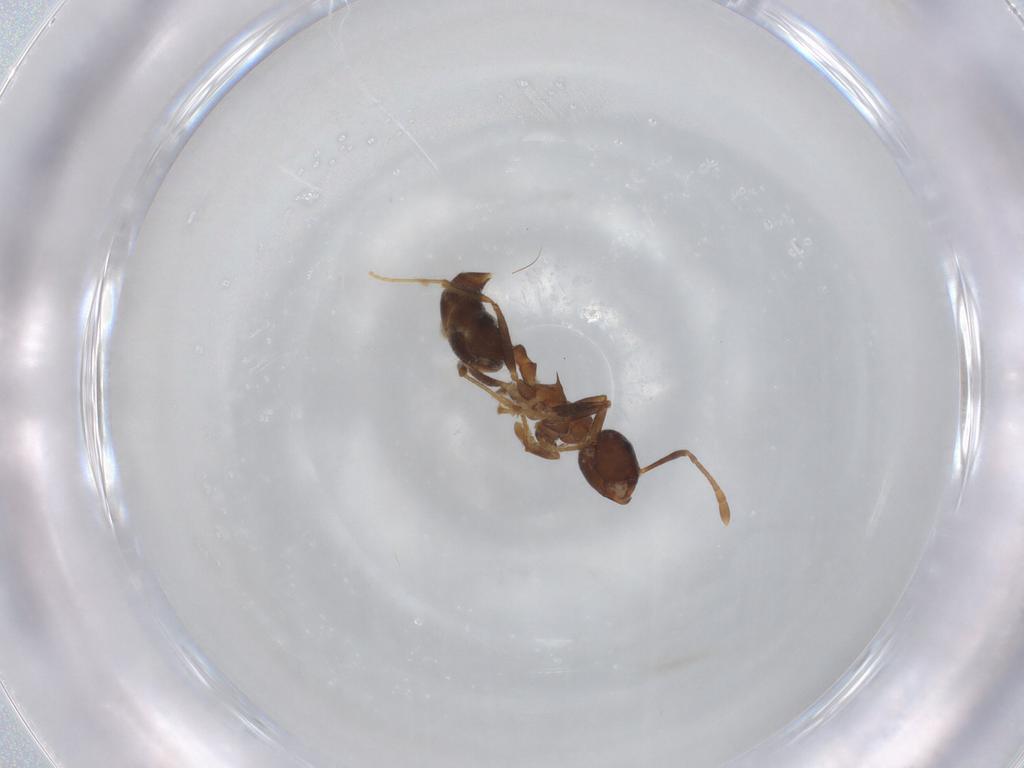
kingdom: Animalia
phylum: Arthropoda
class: Insecta
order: Hymenoptera
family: Formicidae
